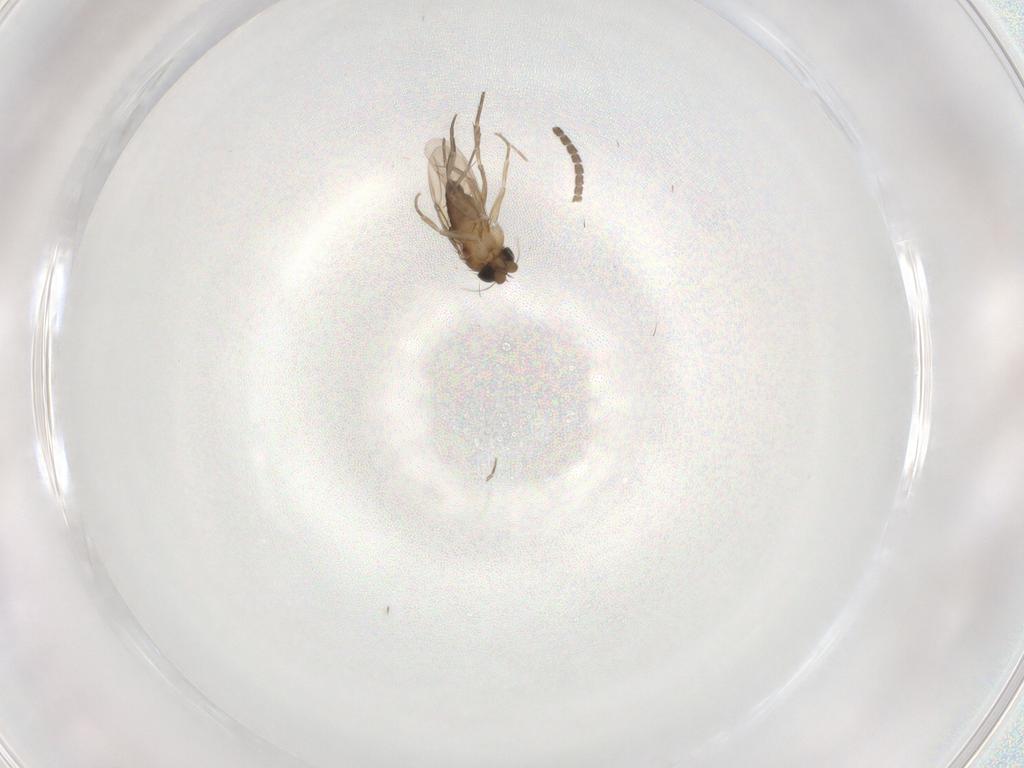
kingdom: Animalia
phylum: Arthropoda
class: Insecta
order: Diptera
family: Phoridae
